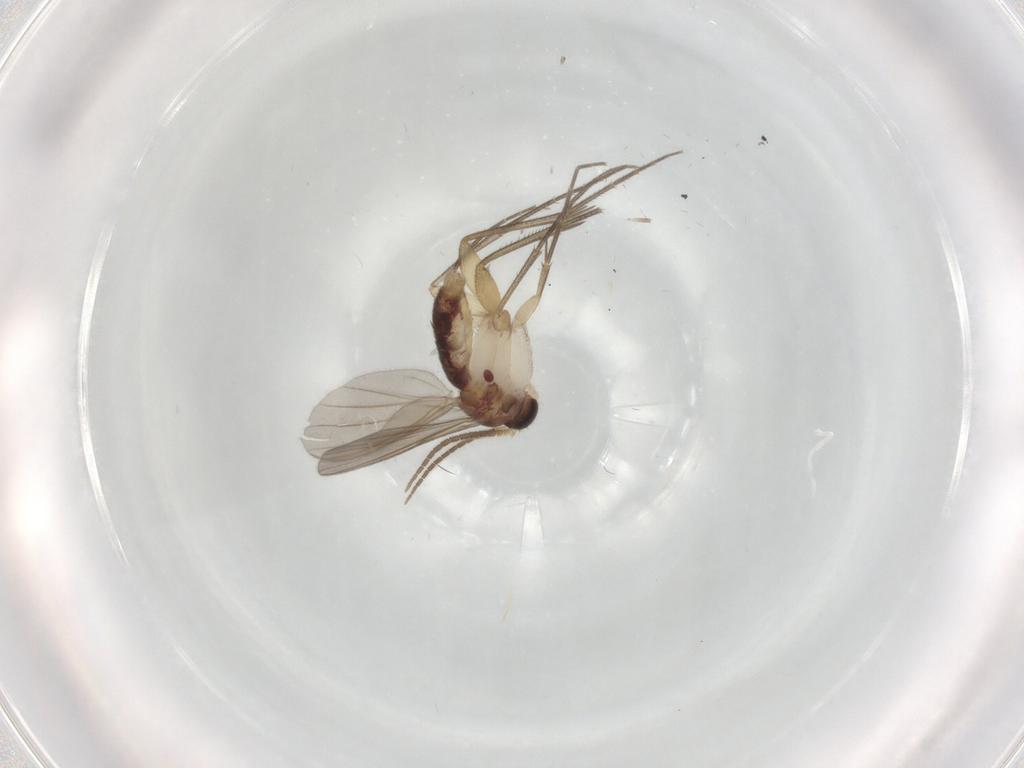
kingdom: Animalia
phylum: Arthropoda
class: Insecta
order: Diptera
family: Mycetophilidae
